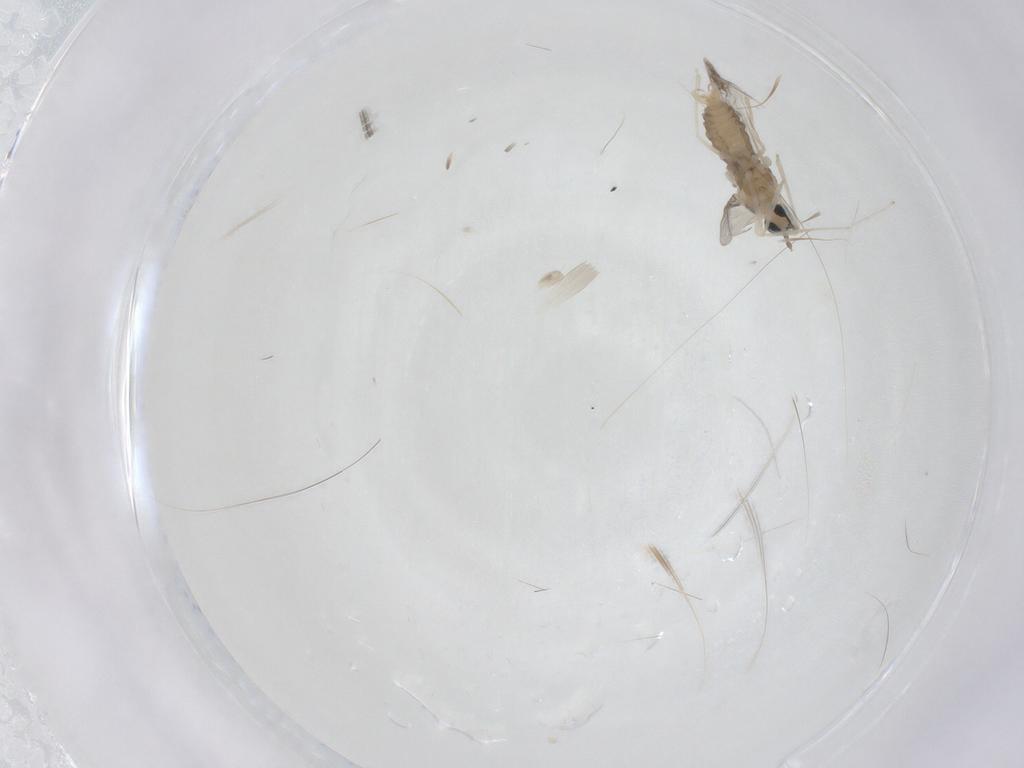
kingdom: Animalia
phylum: Arthropoda
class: Insecta
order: Diptera
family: Cecidomyiidae
